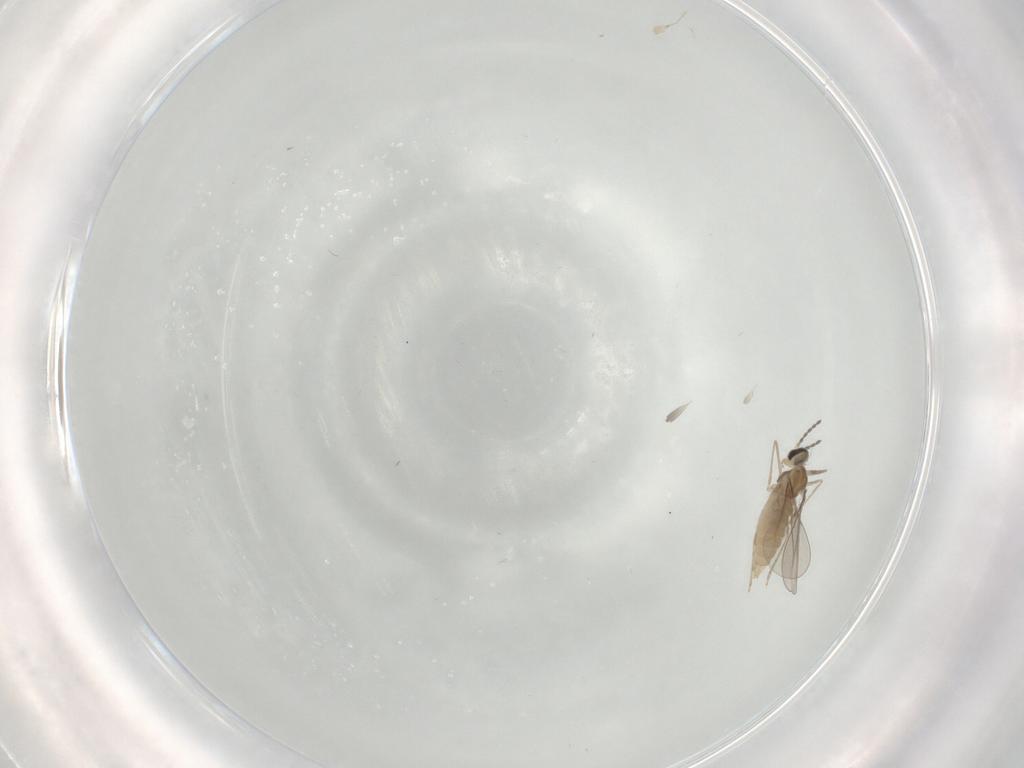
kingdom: Animalia
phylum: Arthropoda
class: Insecta
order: Diptera
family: Cecidomyiidae
